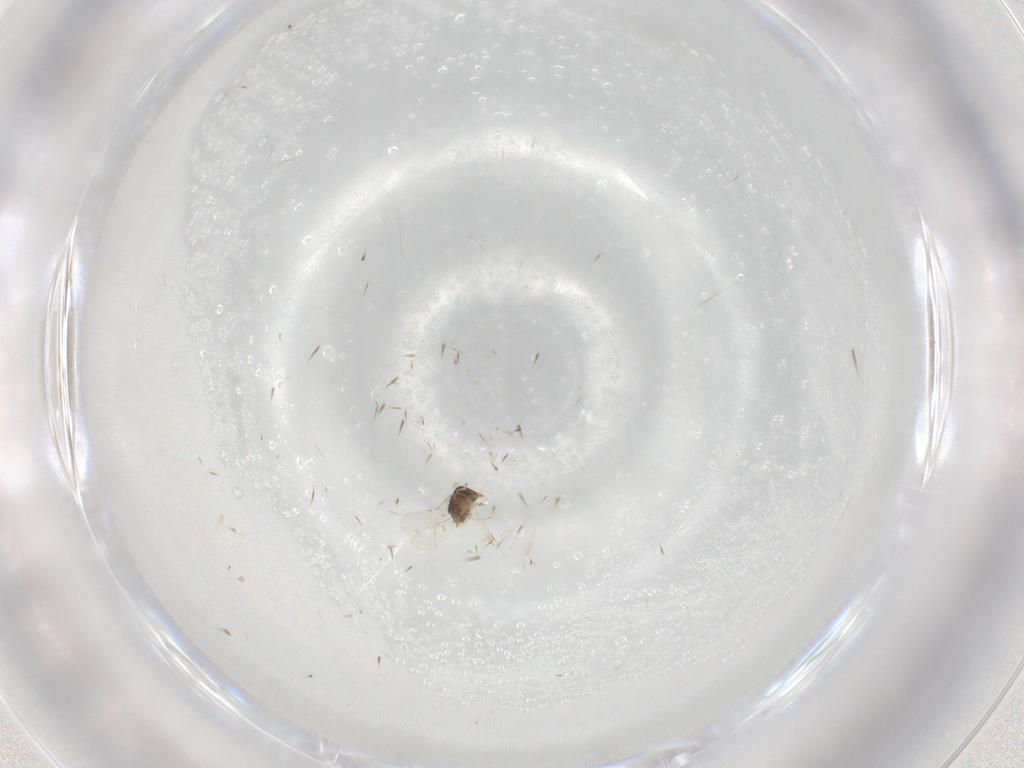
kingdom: Animalia
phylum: Arthropoda
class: Insecta
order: Hymenoptera
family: Encyrtidae
